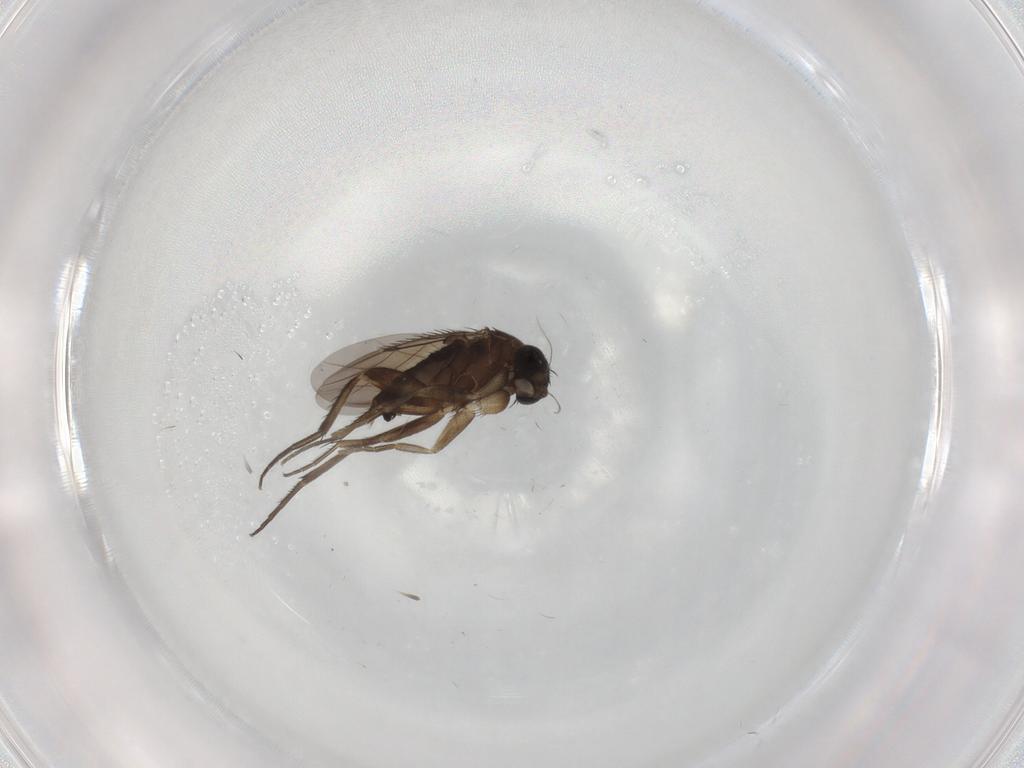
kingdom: Animalia
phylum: Arthropoda
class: Insecta
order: Diptera
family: Phoridae
